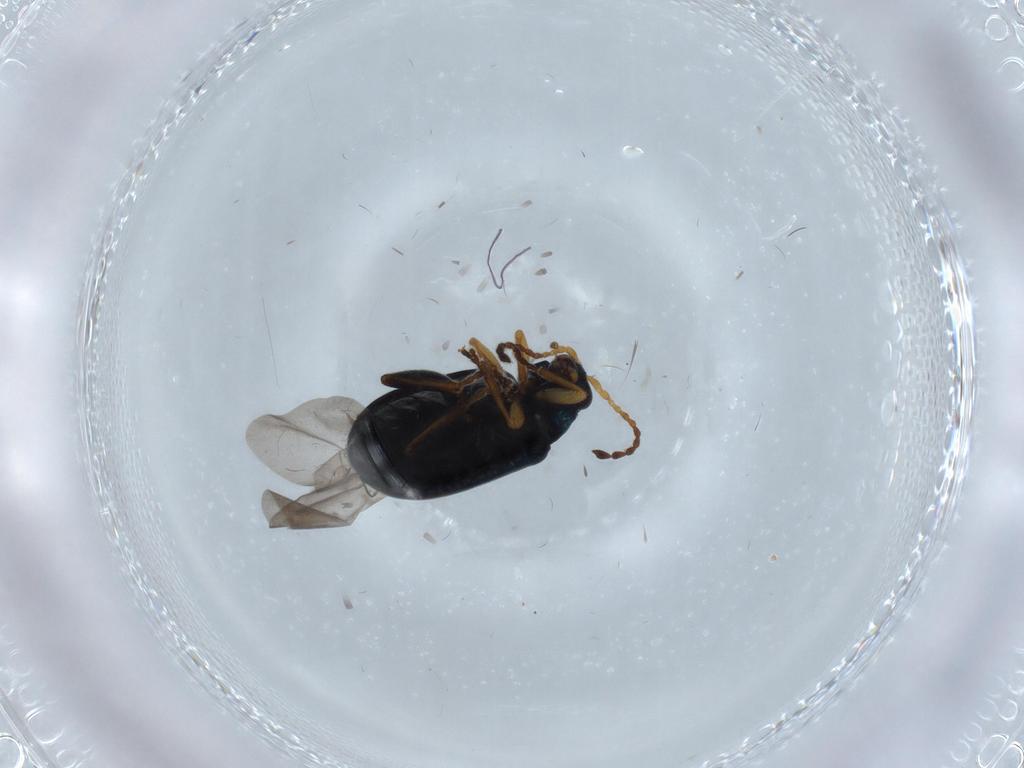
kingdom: Animalia
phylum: Arthropoda
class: Insecta
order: Coleoptera
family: Chrysomelidae
